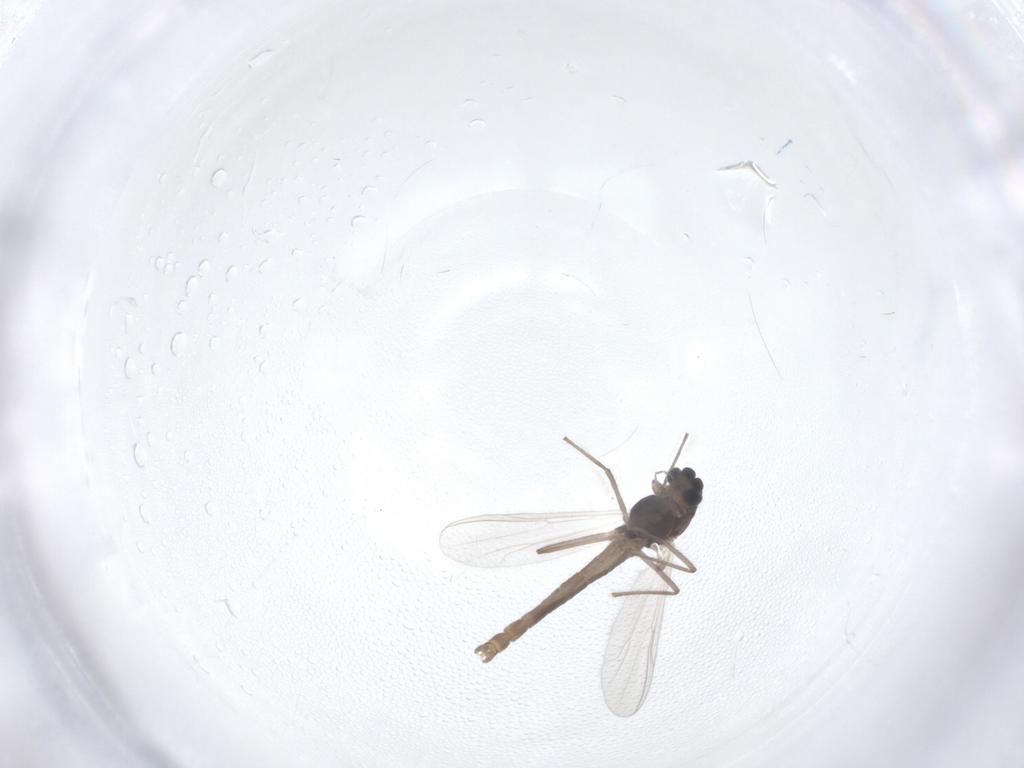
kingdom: Animalia
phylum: Arthropoda
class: Insecta
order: Diptera
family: Chironomidae
